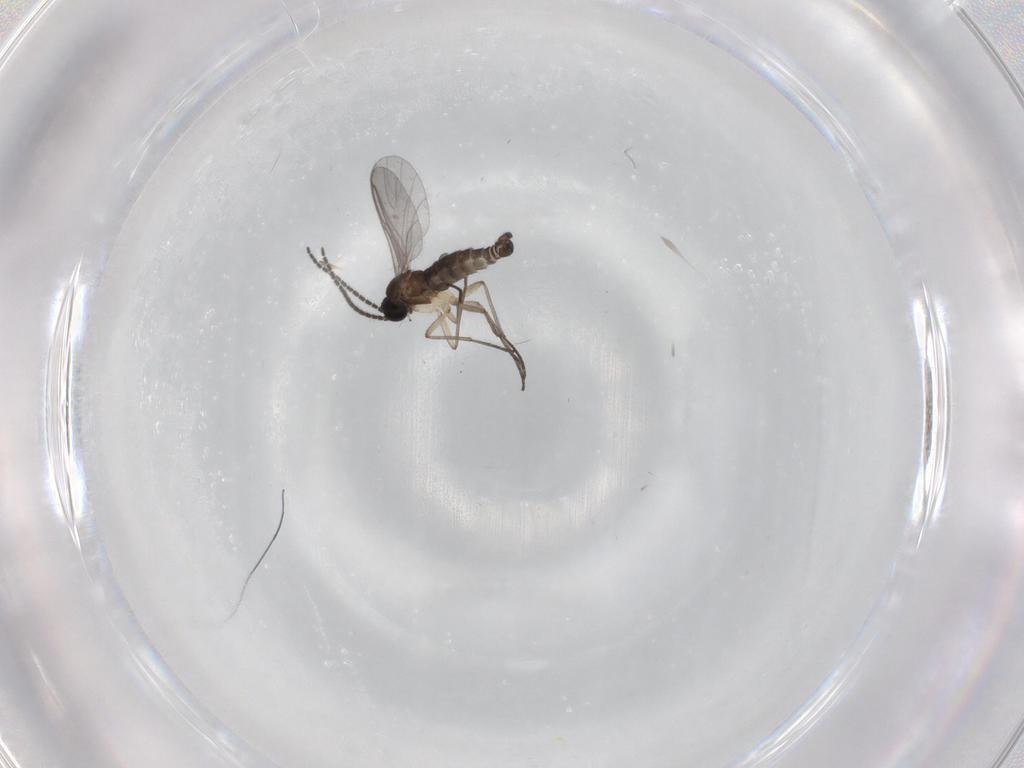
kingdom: Animalia
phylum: Arthropoda
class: Insecta
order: Diptera
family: Sciaridae
